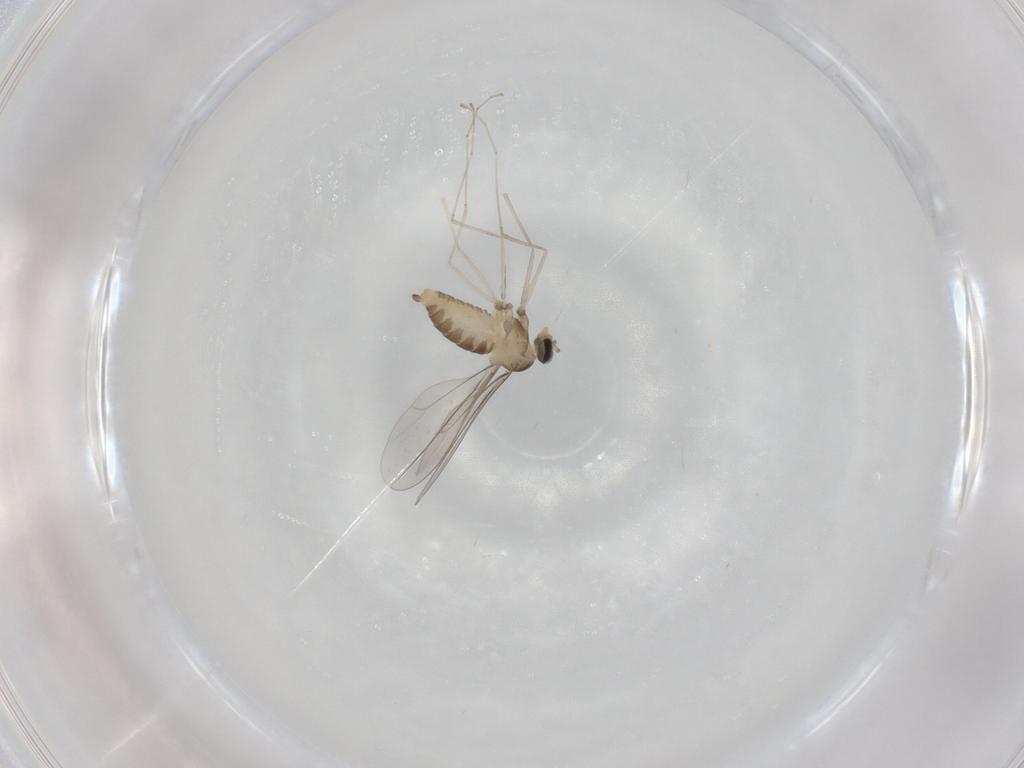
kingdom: Animalia
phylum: Arthropoda
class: Insecta
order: Diptera
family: Cecidomyiidae
